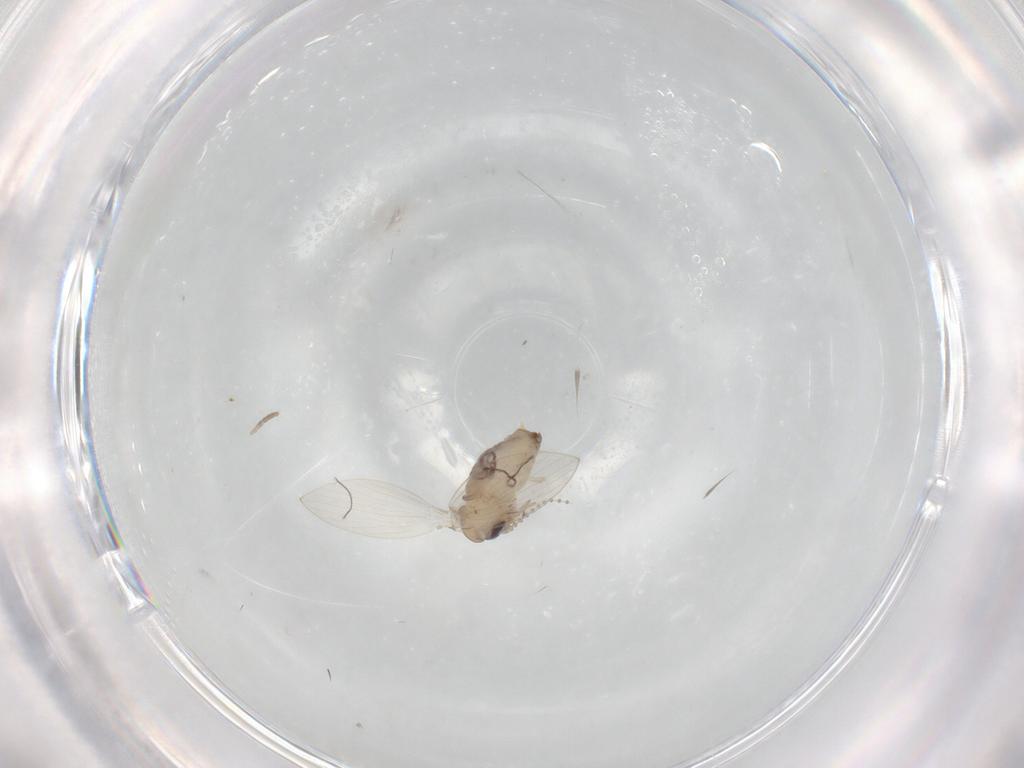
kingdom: Animalia
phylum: Arthropoda
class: Insecta
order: Diptera
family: Psychodidae
